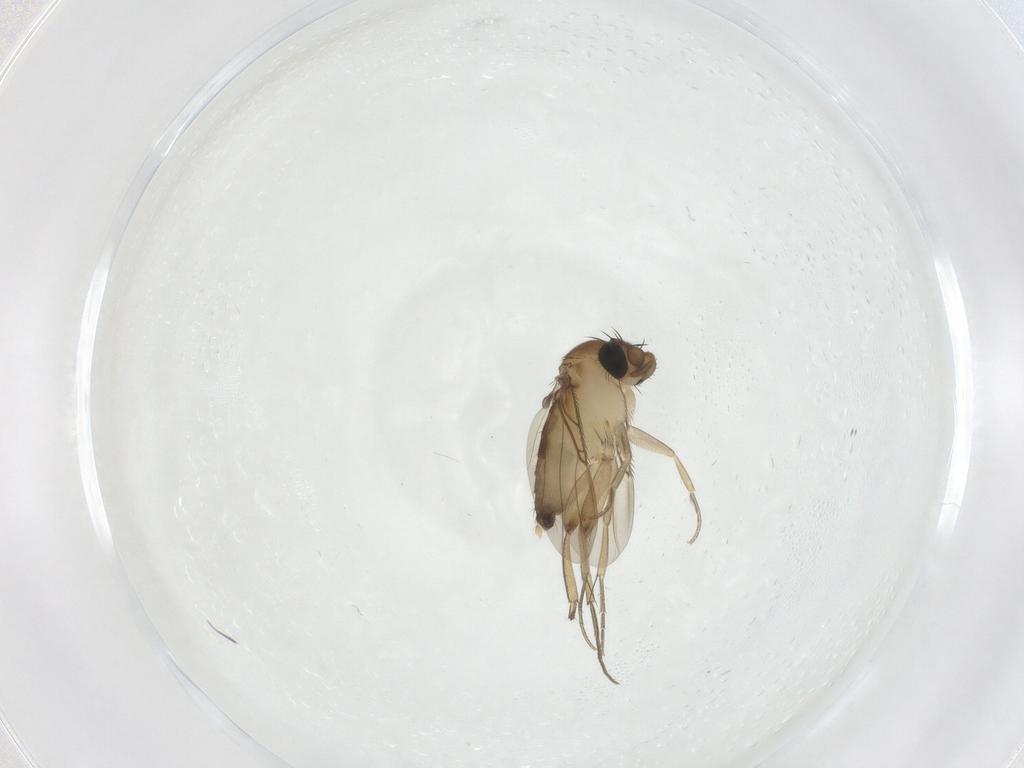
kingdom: Animalia
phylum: Arthropoda
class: Insecta
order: Diptera
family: Phoridae
